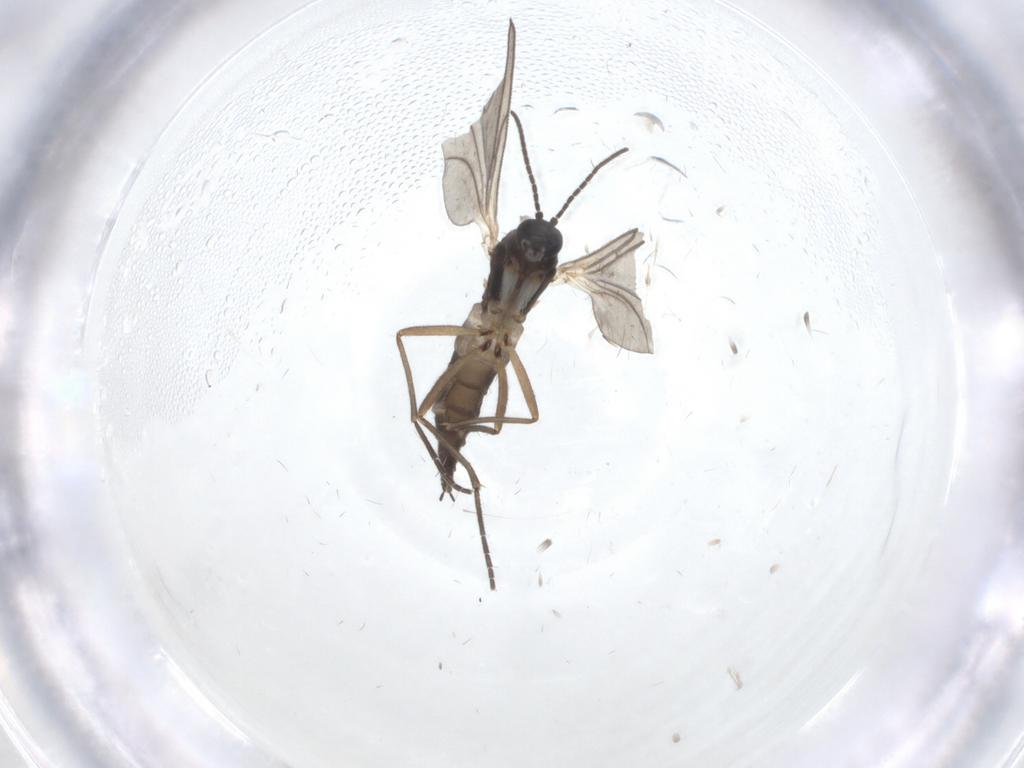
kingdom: Animalia
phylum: Arthropoda
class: Insecta
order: Diptera
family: Sciaridae
